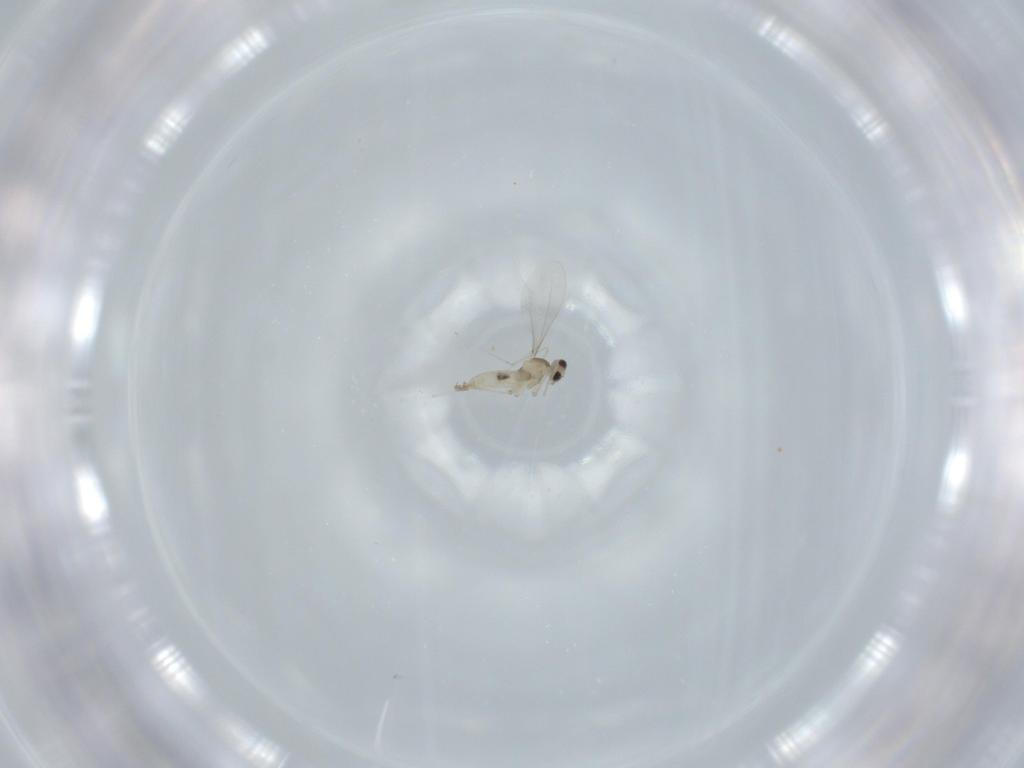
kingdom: Animalia
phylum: Arthropoda
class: Insecta
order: Diptera
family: Cecidomyiidae
